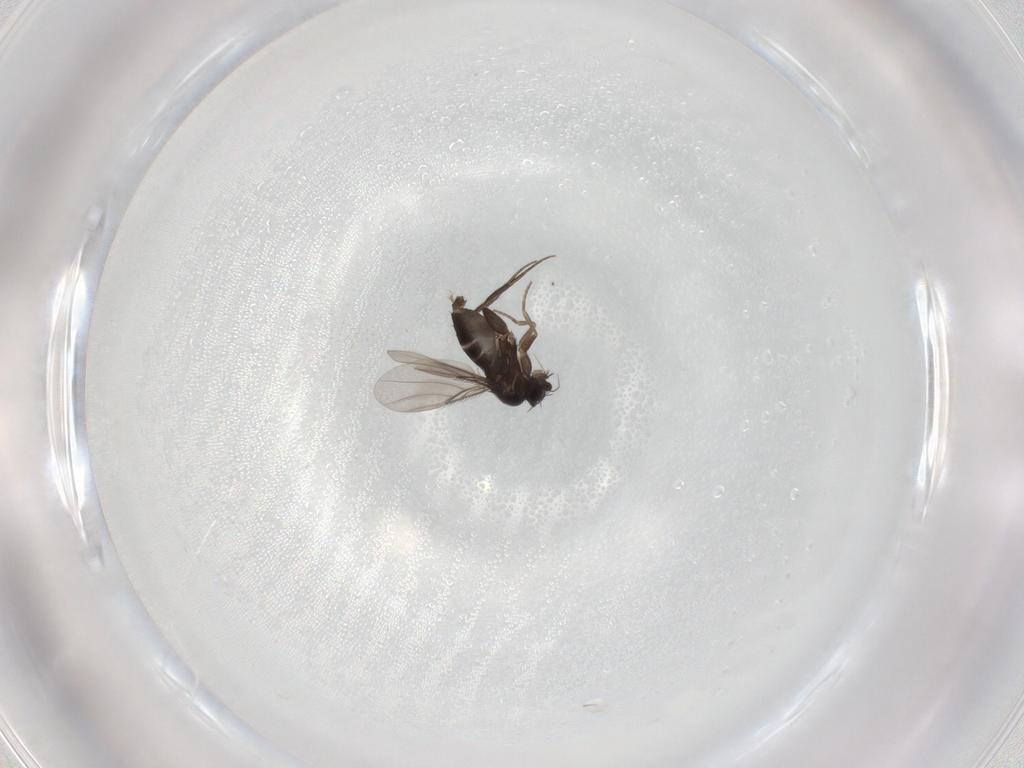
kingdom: Animalia
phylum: Arthropoda
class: Insecta
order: Diptera
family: Phoridae
